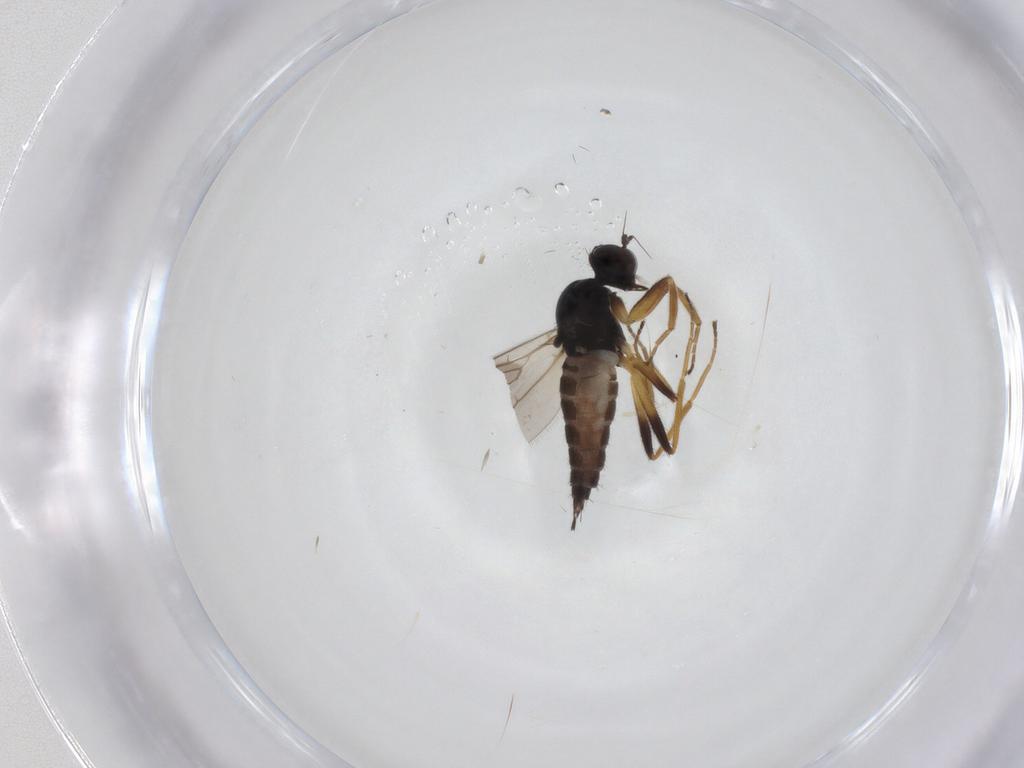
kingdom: Animalia
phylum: Arthropoda
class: Insecta
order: Diptera
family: Hybotidae
